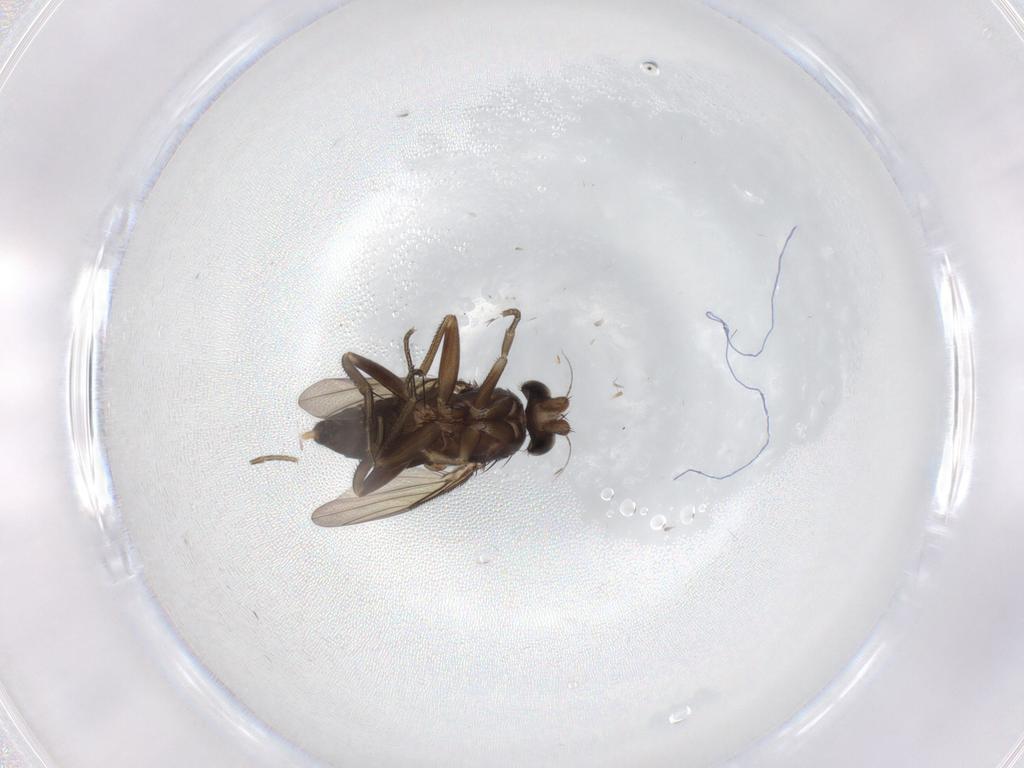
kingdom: Animalia
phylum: Arthropoda
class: Insecta
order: Diptera
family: Phoridae
